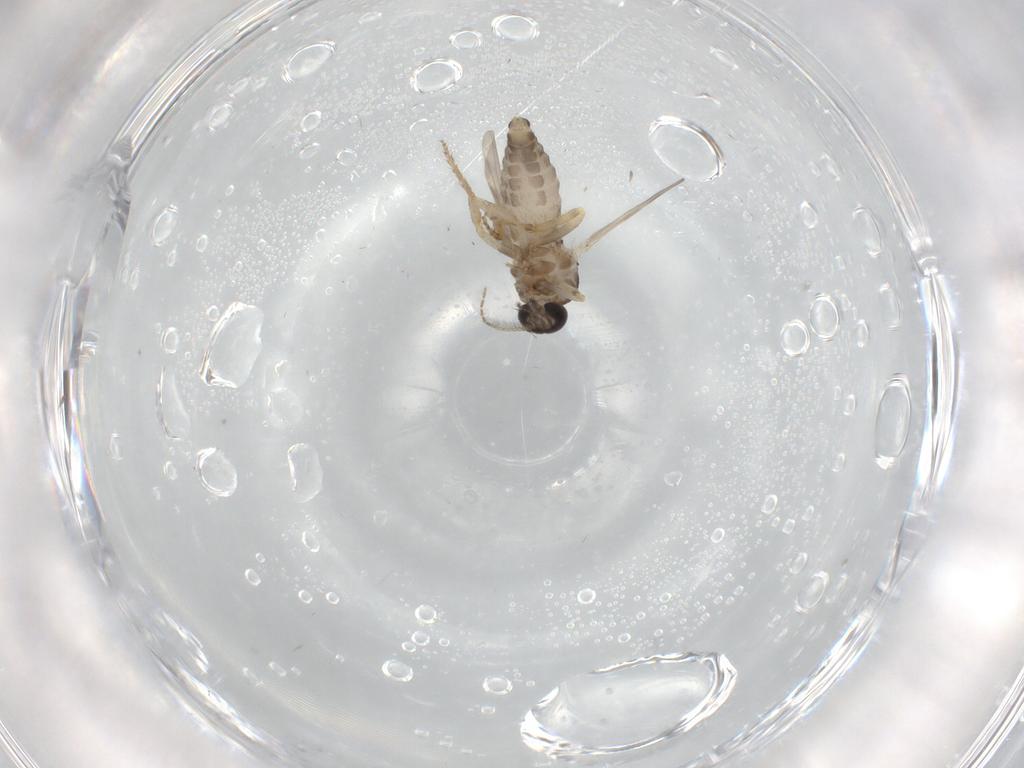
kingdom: Animalia
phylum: Arthropoda
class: Insecta
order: Diptera
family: Ceratopogonidae
